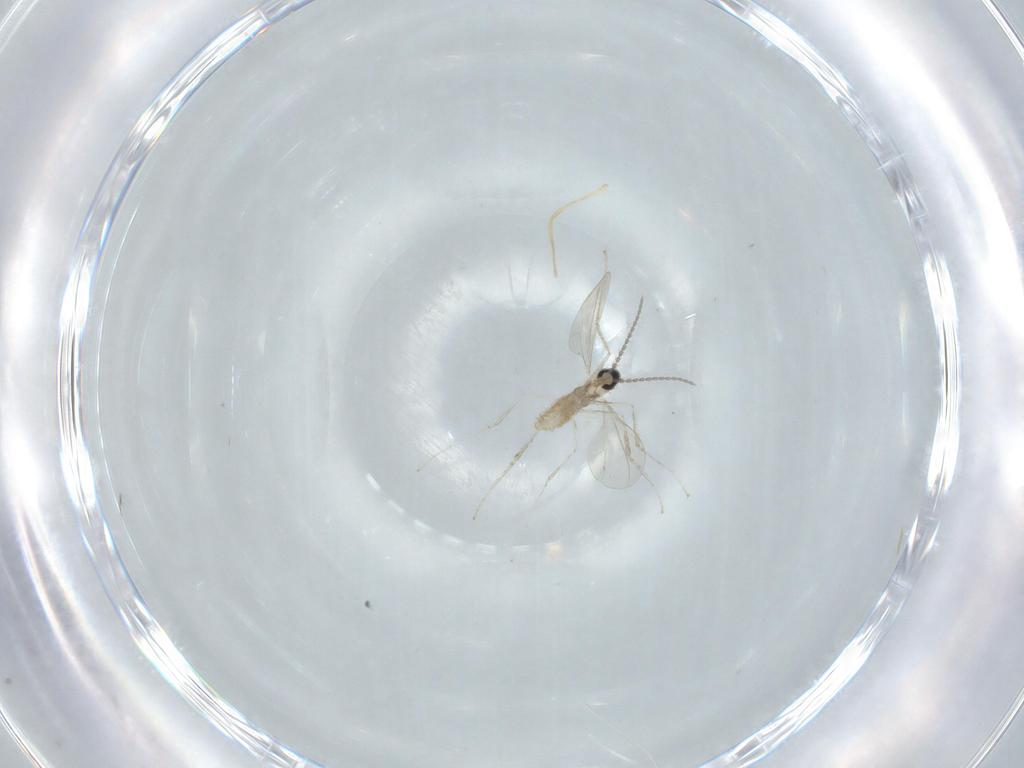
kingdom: Animalia
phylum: Arthropoda
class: Insecta
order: Diptera
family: Cecidomyiidae
